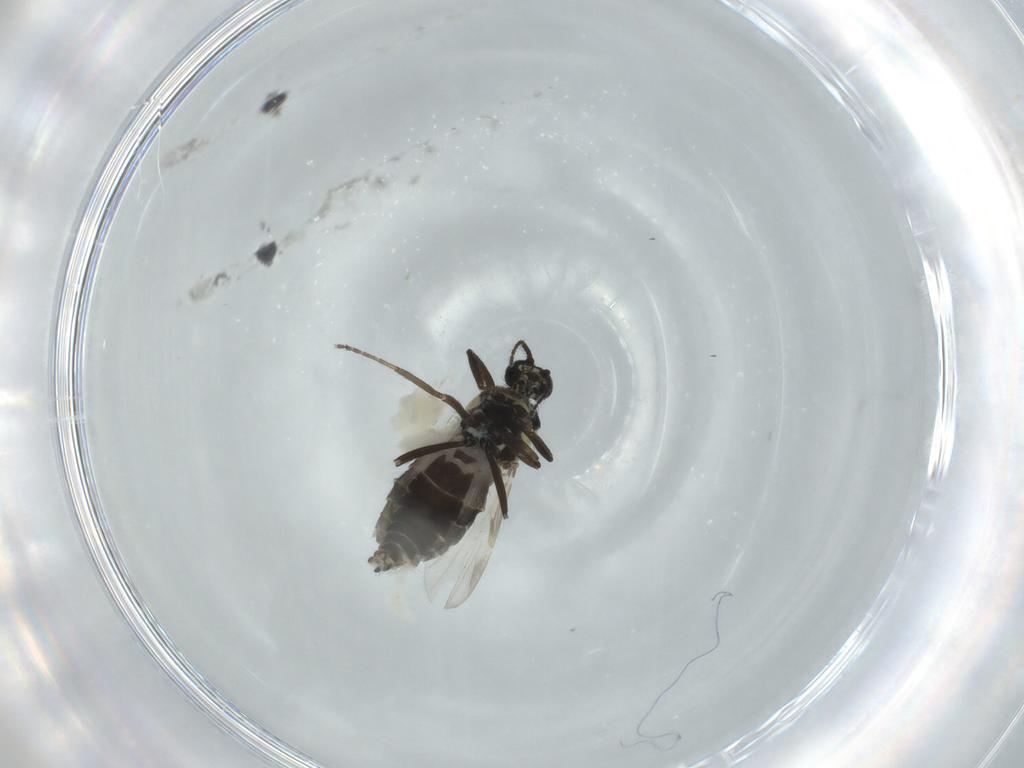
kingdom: Animalia
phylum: Arthropoda
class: Insecta
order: Diptera
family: Ceratopogonidae
